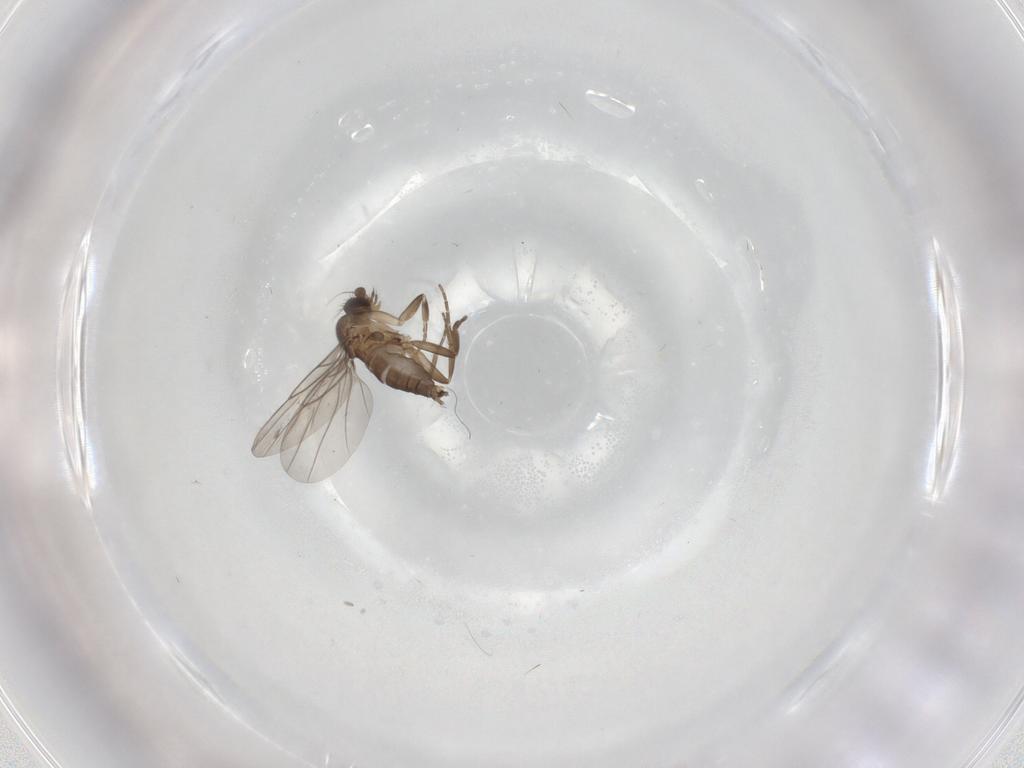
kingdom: Animalia
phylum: Arthropoda
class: Insecta
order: Diptera
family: Phoridae
